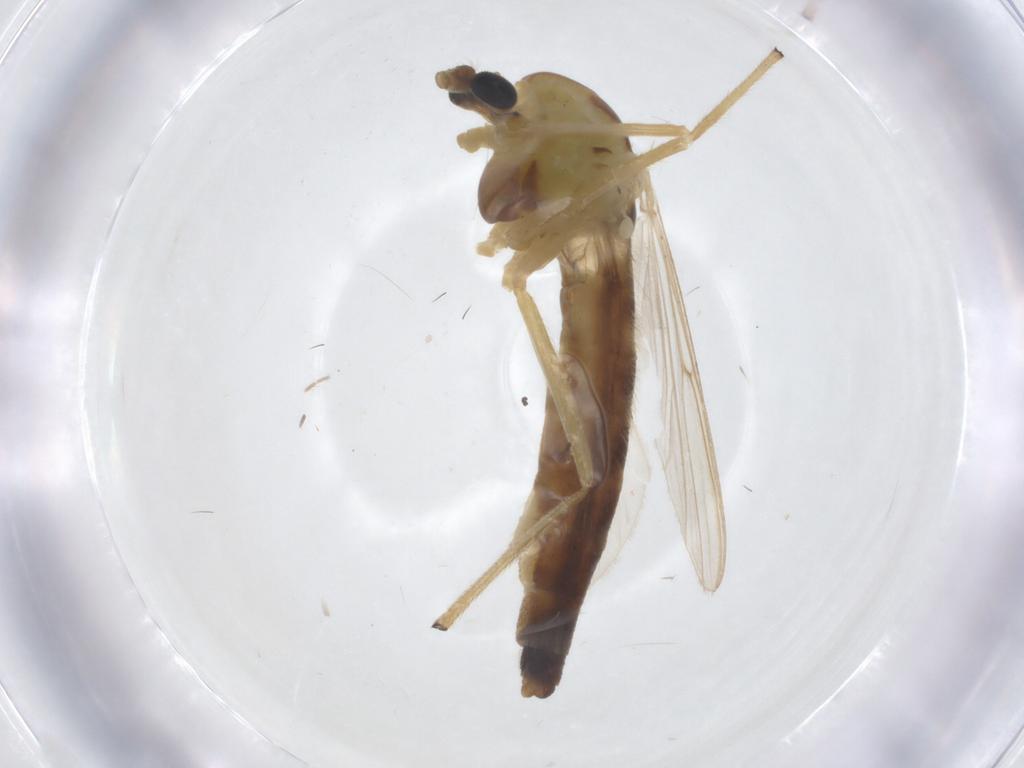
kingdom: Animalia
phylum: Arthropoda
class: Insecta
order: Diptera
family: Ceratopogonidae
